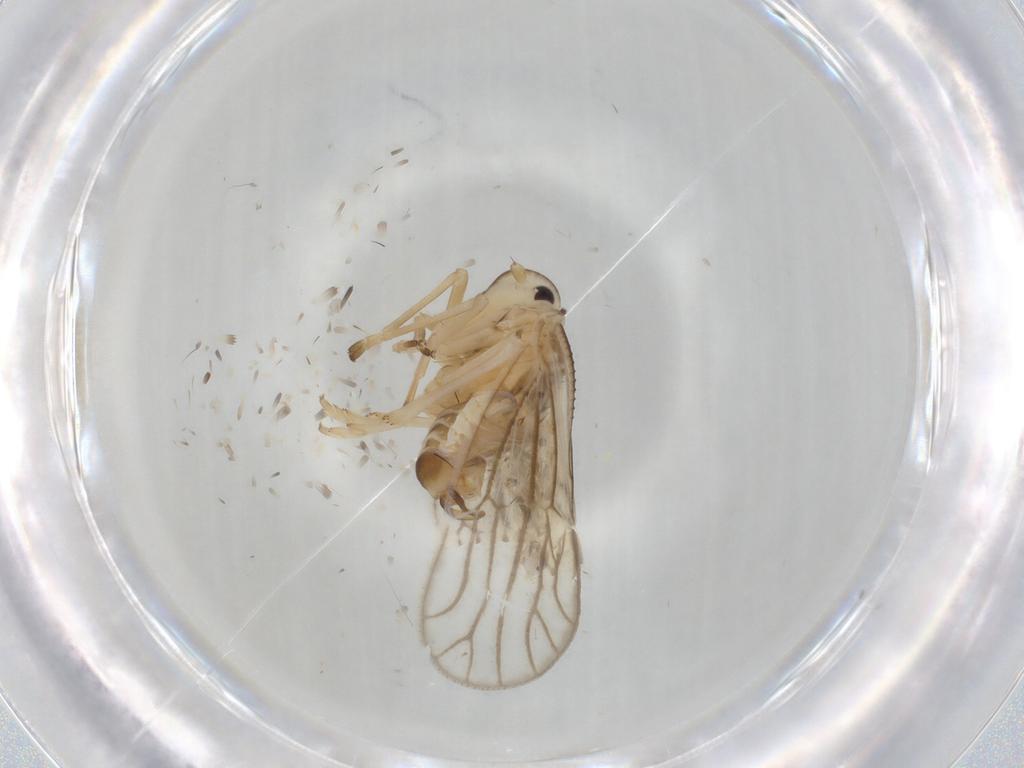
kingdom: Animalia
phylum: Arthropoda
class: Insecta
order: Hemiptera
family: Meenoplidae
